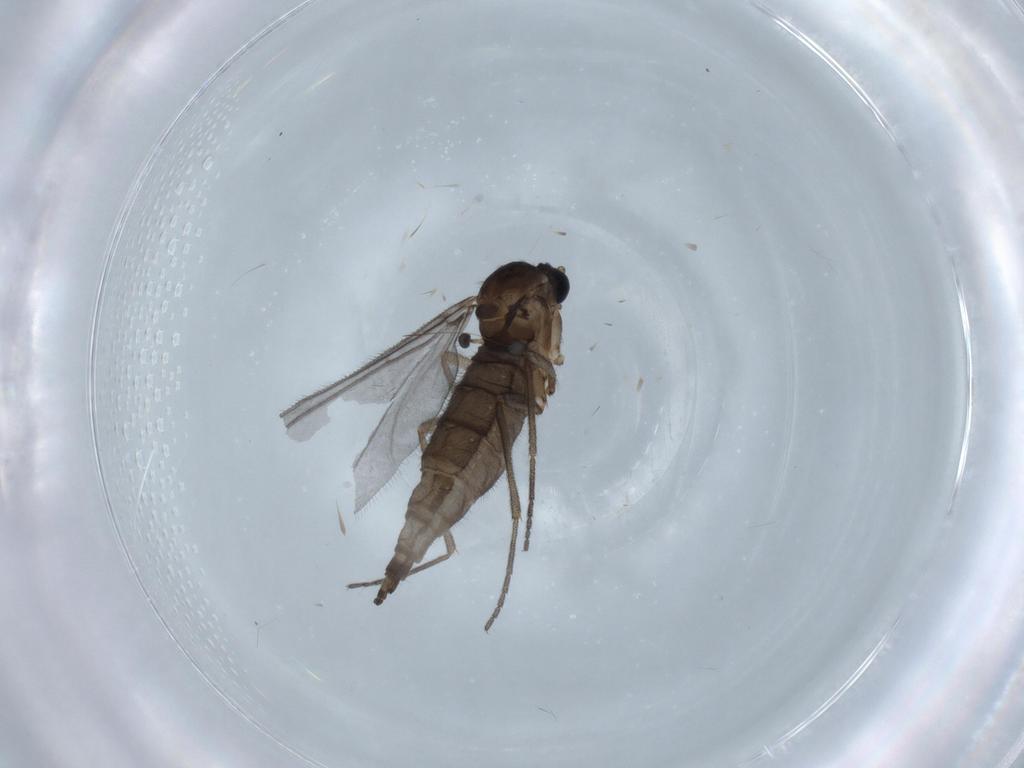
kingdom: Animalia
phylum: Arthropoda
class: Insecta
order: Diptera
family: Sciaridae
